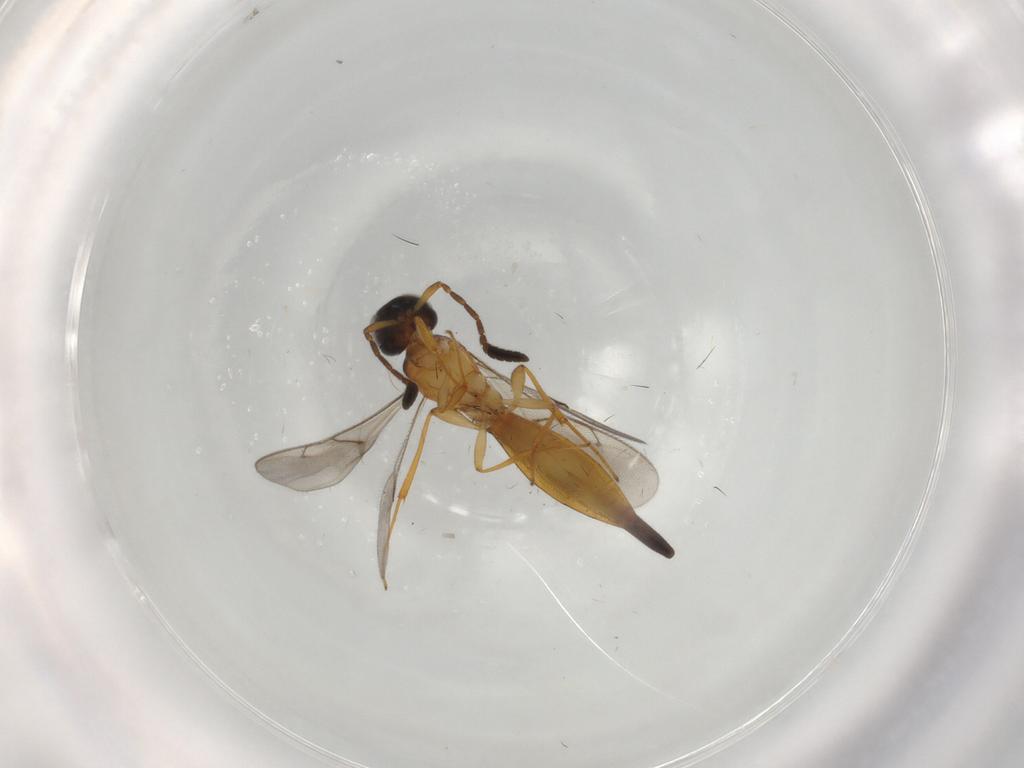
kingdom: Animalia
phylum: Arthropoda
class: Insecta
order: Hymenoptera
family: Scelionidae
